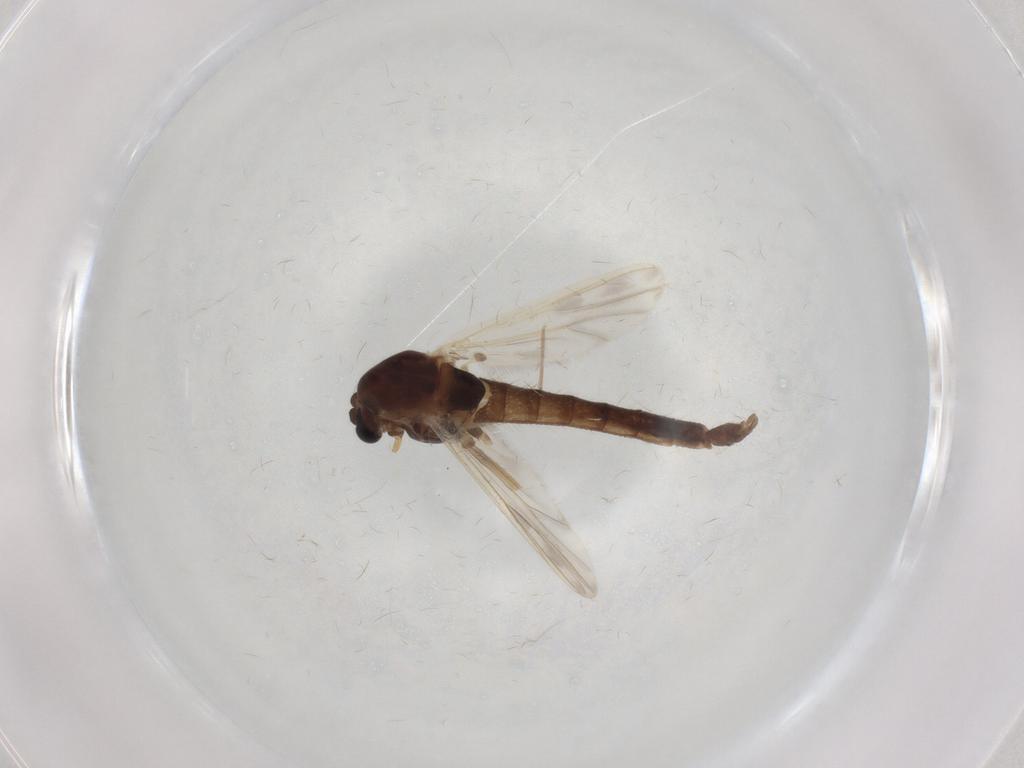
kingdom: Animalia
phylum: Arthropoda
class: Insecta
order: Diptera
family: Chironomidae
